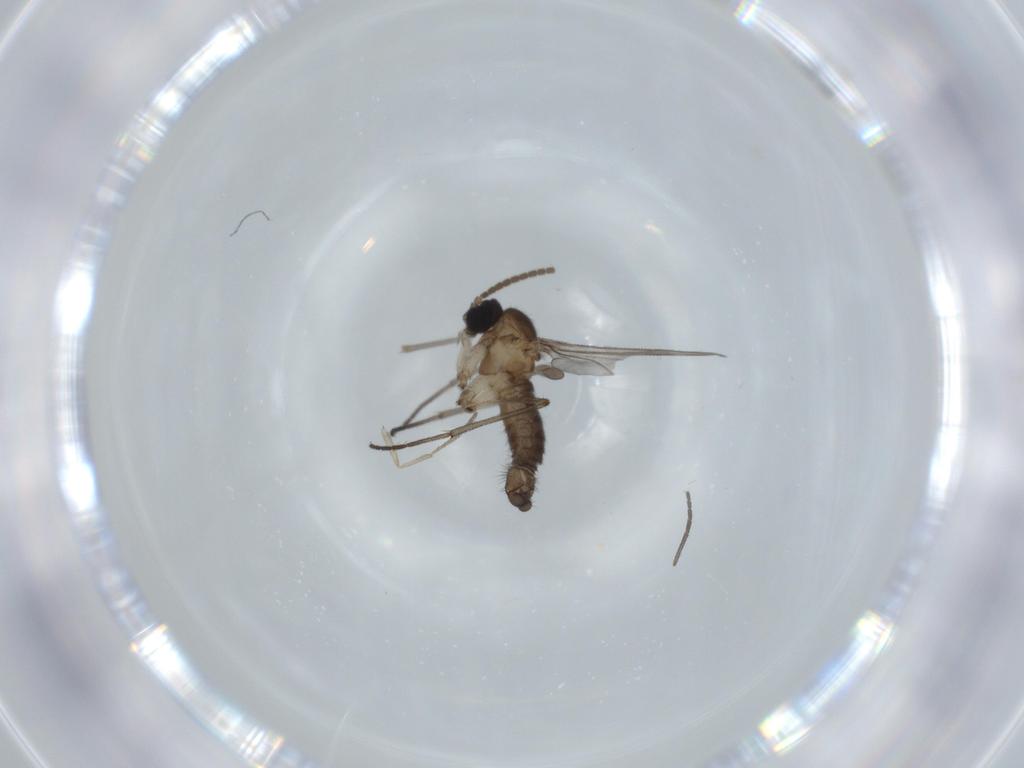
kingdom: Animalia
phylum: Arthropoda
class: Insecta
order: Diptera
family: Sciaridae
